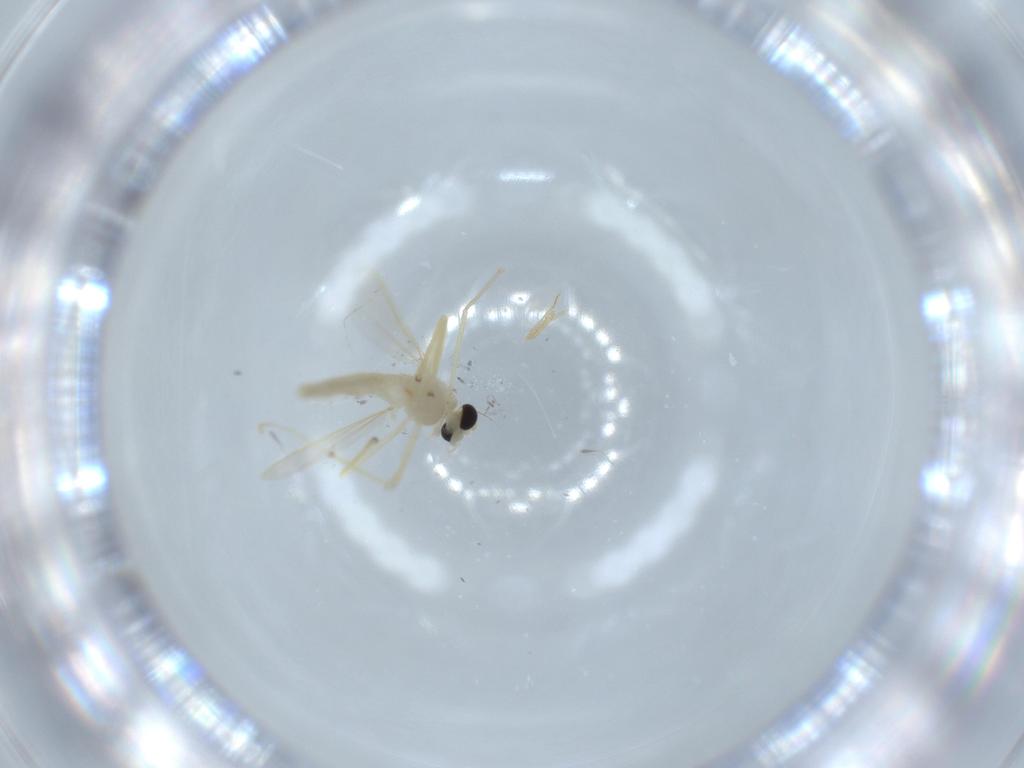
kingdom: Animalia
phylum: Arthropoda
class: Insecta
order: Diptera
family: Chironomidae
